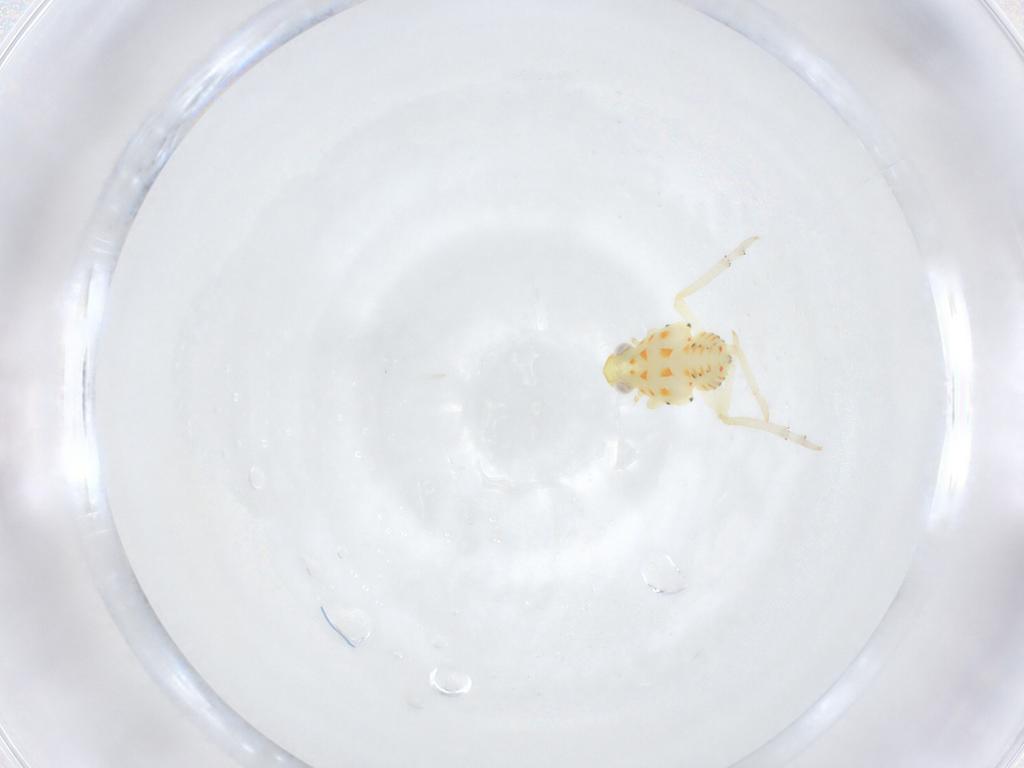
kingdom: Animalia
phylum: Arthropoda
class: Insecta
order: Hemiptera
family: Tropiduchidae
